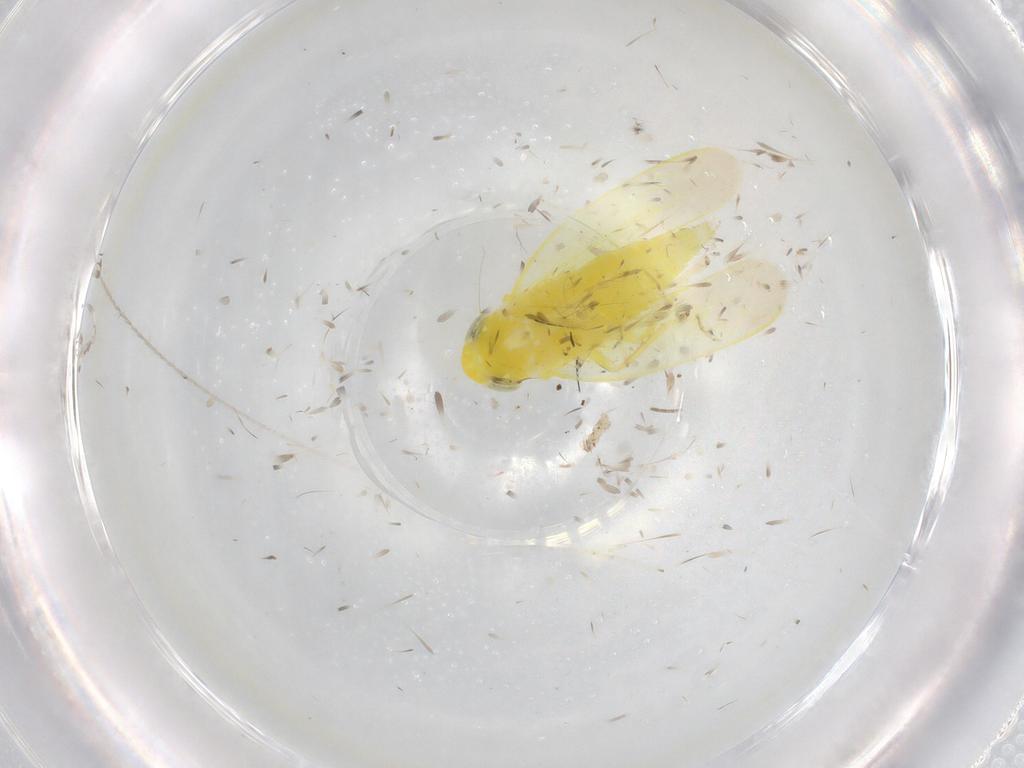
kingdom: Animalia
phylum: Arthropoda
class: Insecta
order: Hemiptera
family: Cicadellidae
